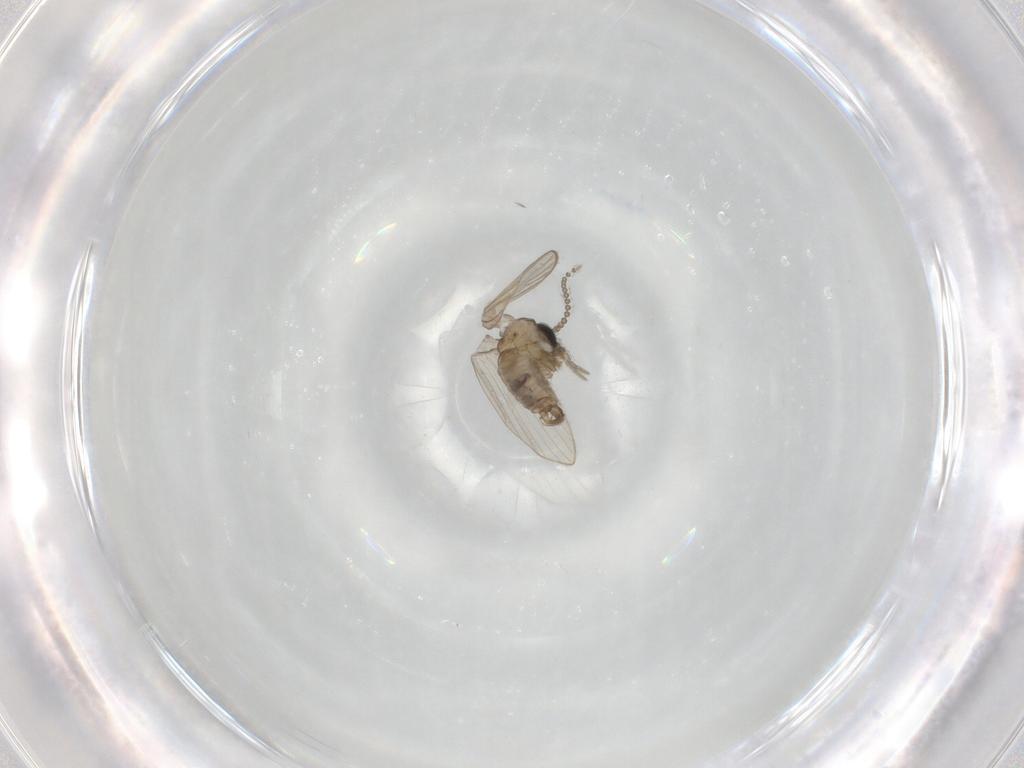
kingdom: Animalia
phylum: Arthropoda
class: Insecta
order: Diptera
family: Psychodidae
